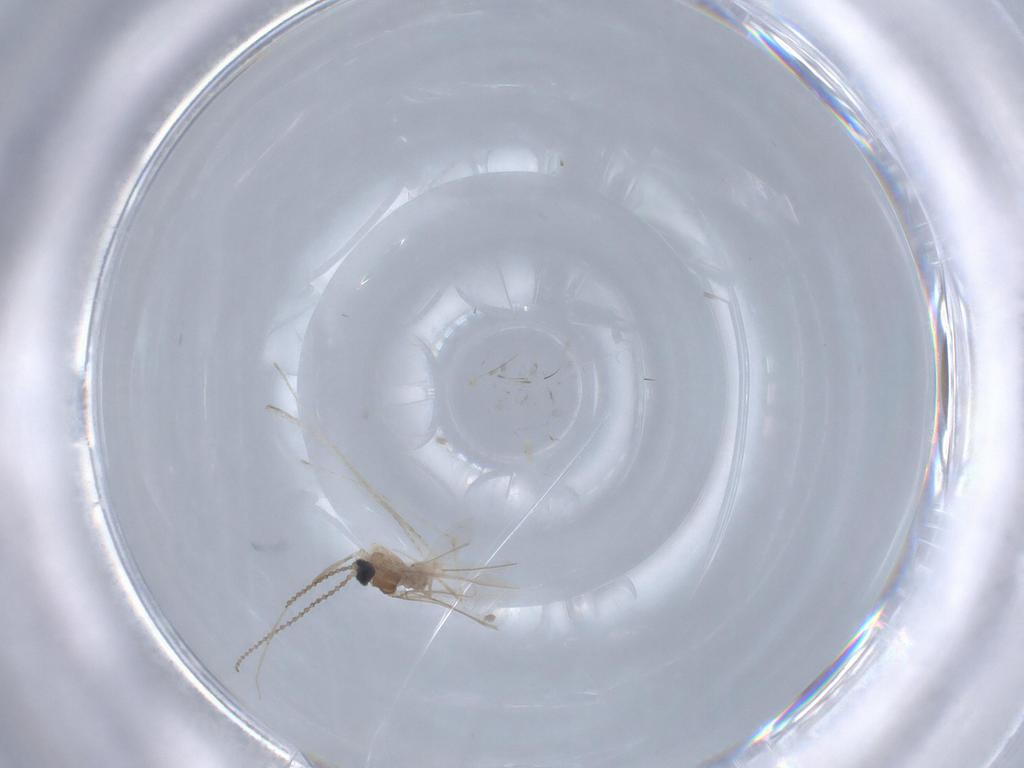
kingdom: Animalia
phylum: Arthropoda
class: Insecta
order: Diptera
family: Cecidomyiidae
